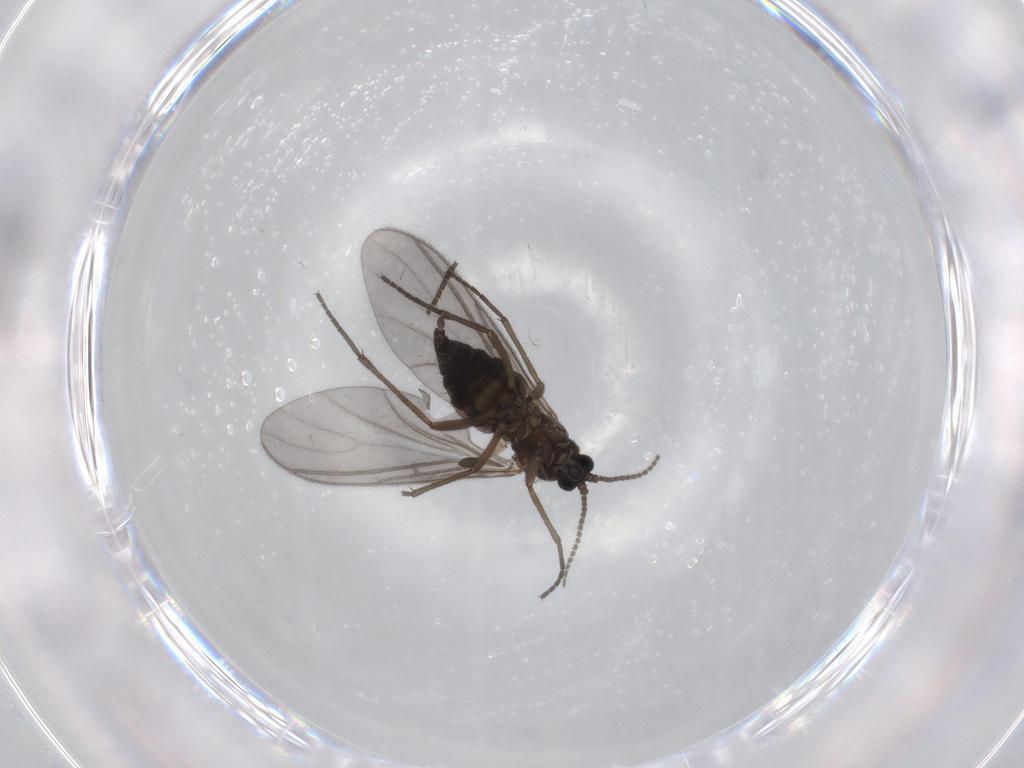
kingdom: Animalia
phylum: Arthropoda
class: Insecta
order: Diptera
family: Sciaridae
